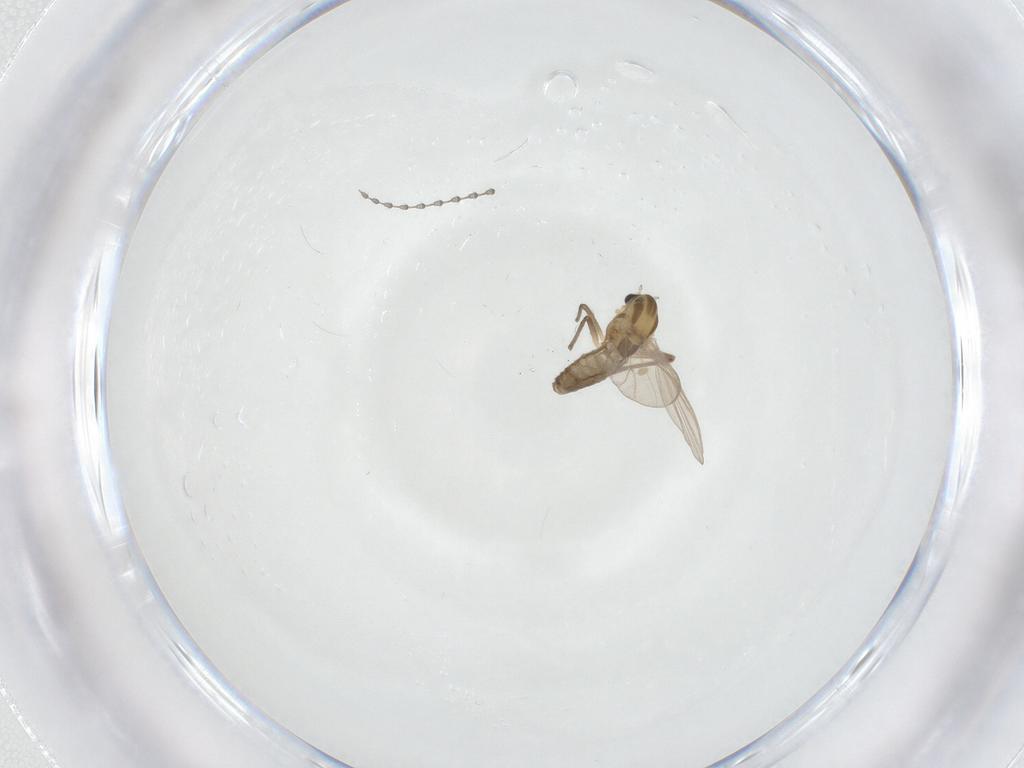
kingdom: Animalia
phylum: Arthropoda
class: Insecta
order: Diptera
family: Chironomidae
